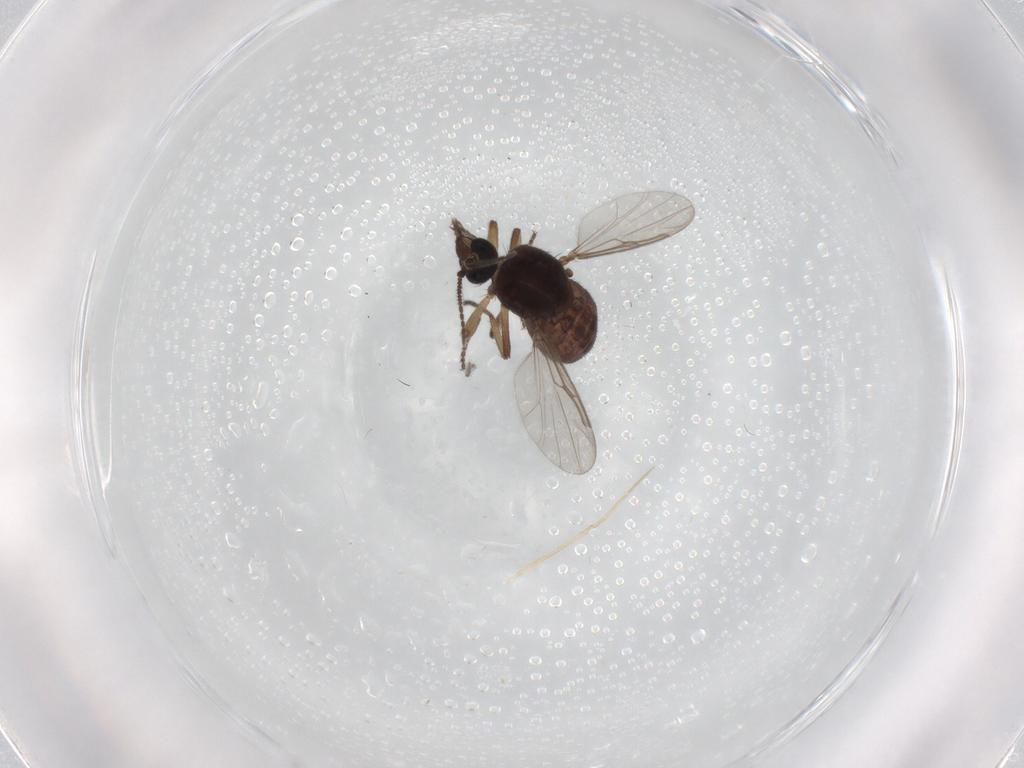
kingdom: Animalia
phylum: Arthropoda
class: Insecta
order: Diptera
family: Ceratopogonidae
